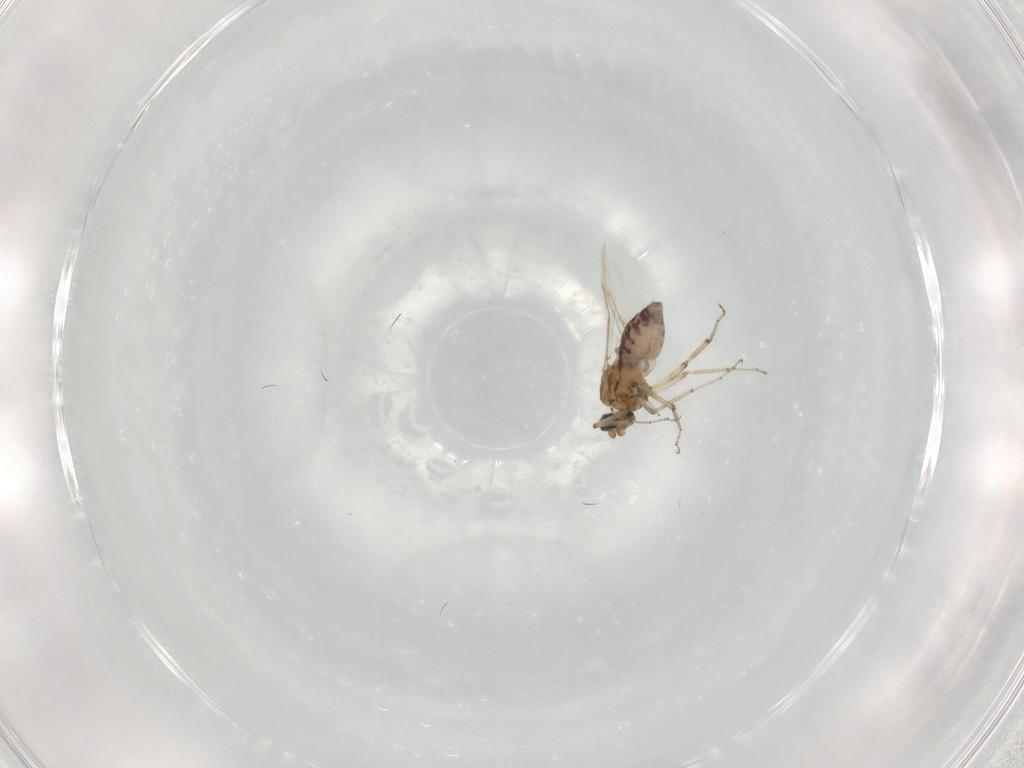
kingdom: Animalia
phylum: Arthropoda
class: Insecta
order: Diptera
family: Ceratopogonidae
